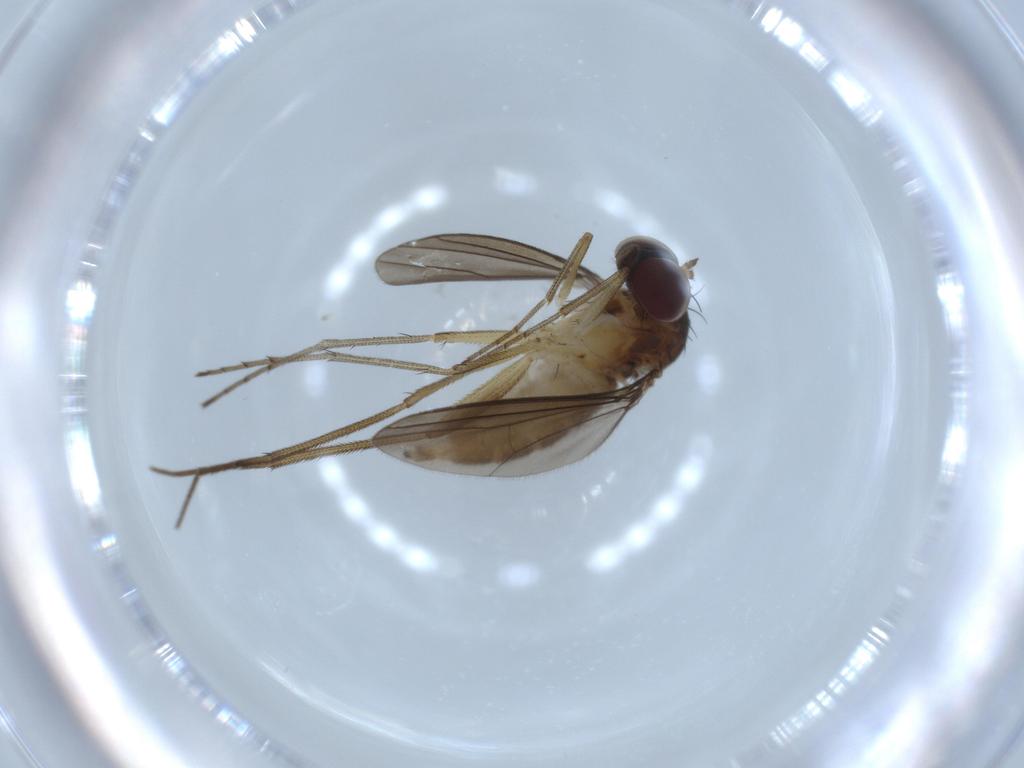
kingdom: Animalia
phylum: Arthropoda
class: Insecta
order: Diptera
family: Dolichopodidae
